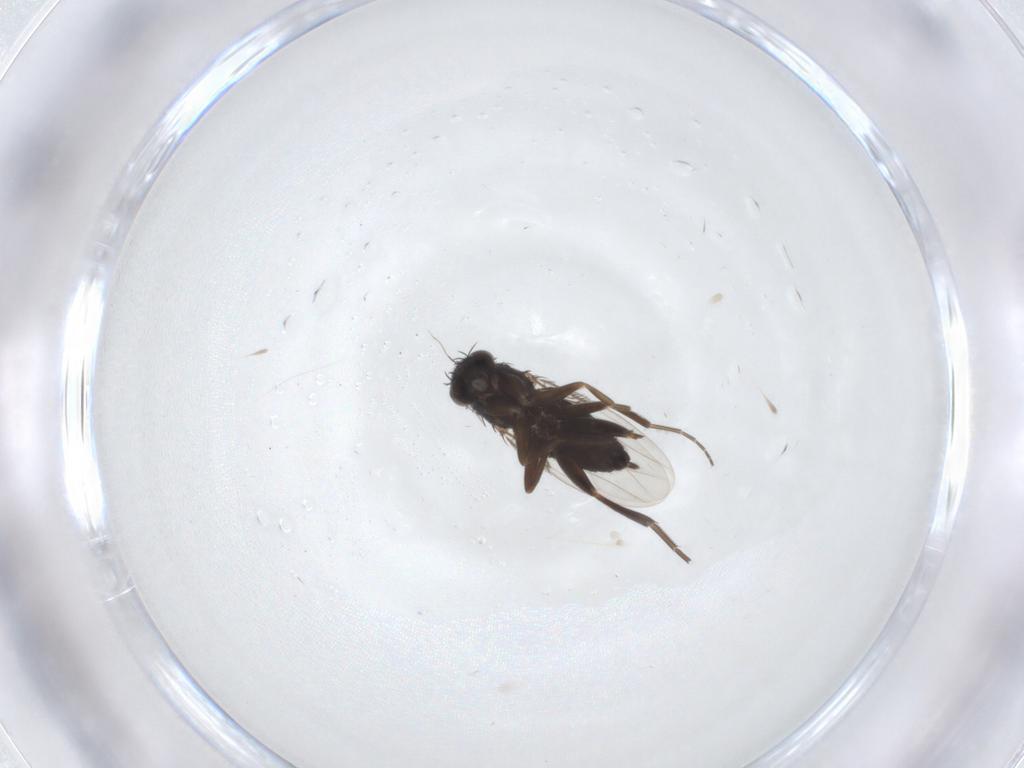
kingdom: Animalia
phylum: Arthropoda
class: Insecta
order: Diptera
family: Phoridae
